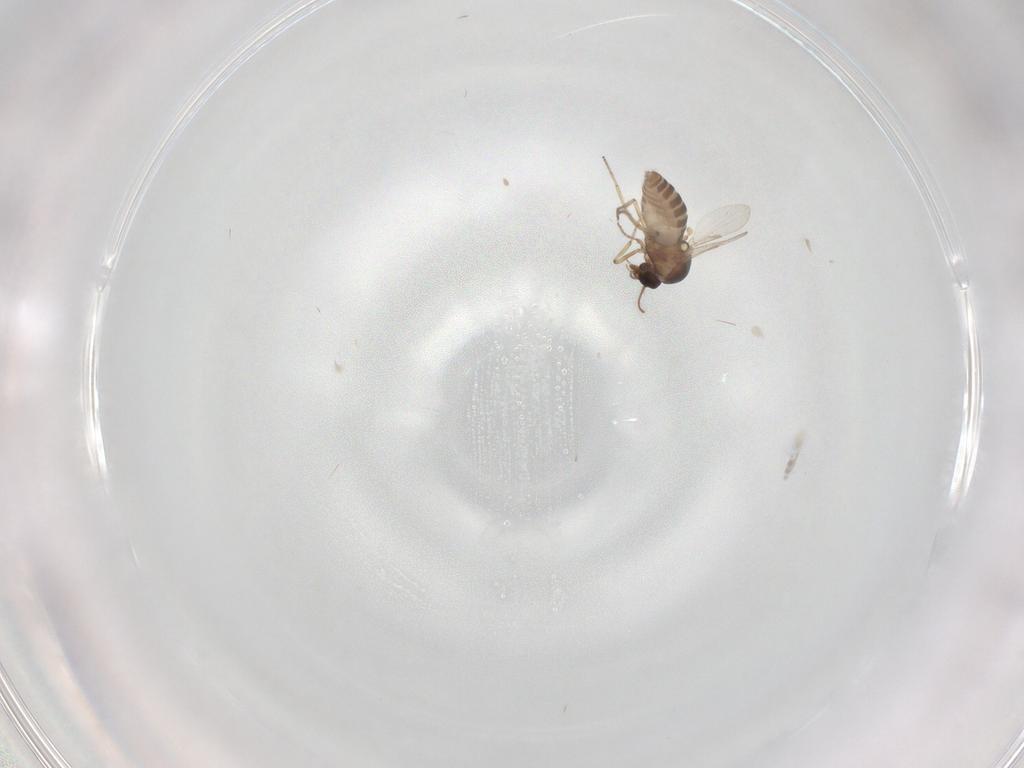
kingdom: Animalia
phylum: Arthropoda
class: Insecta
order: Diptera
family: Ceratopogonidae
